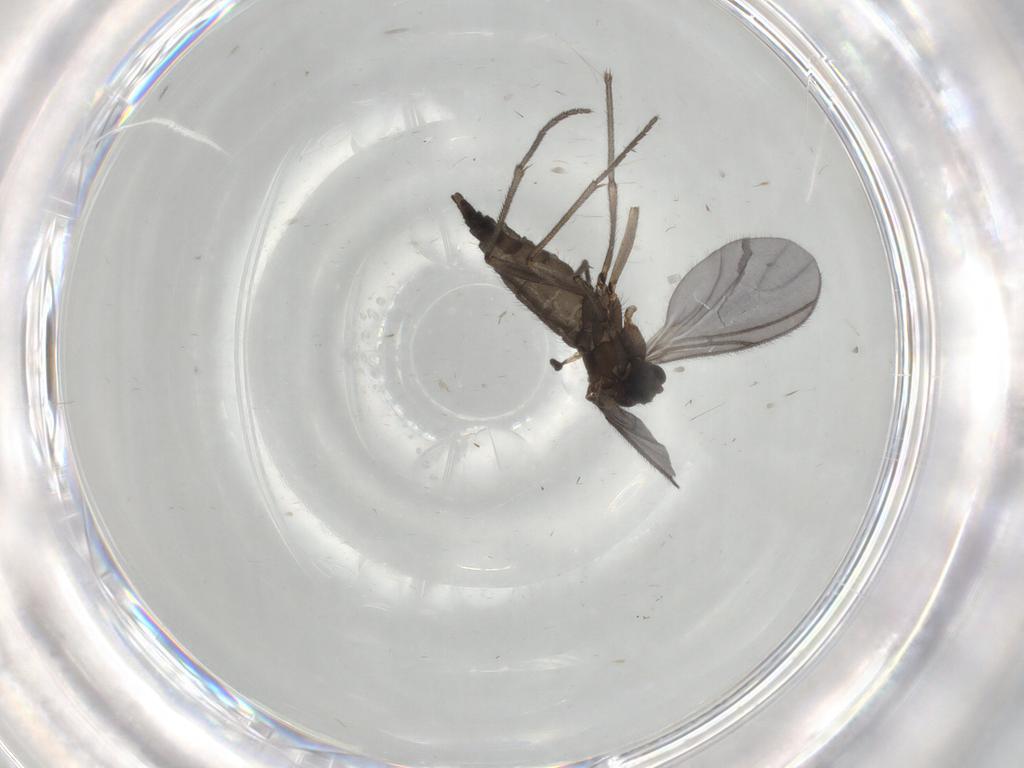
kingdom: Animalia
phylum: Arthropoda
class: Insecta
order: Diptera
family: Sciaridae
